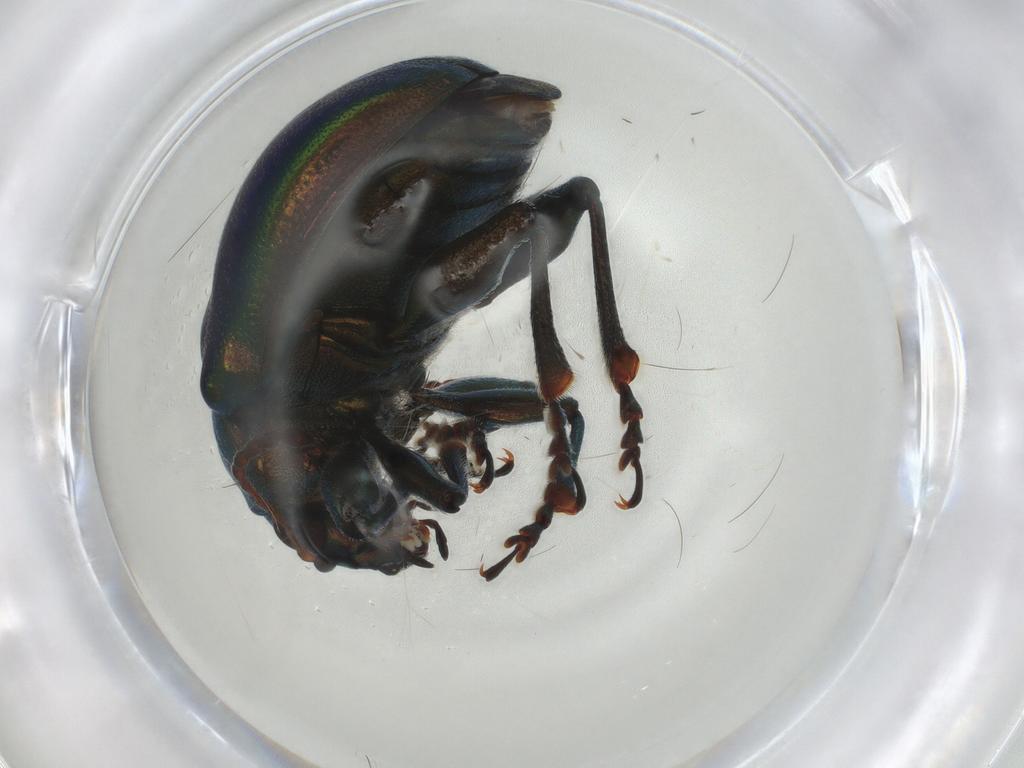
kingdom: Animalia
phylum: Arthropoda
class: Insecta
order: Coleoptera
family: Chrysomelidae
